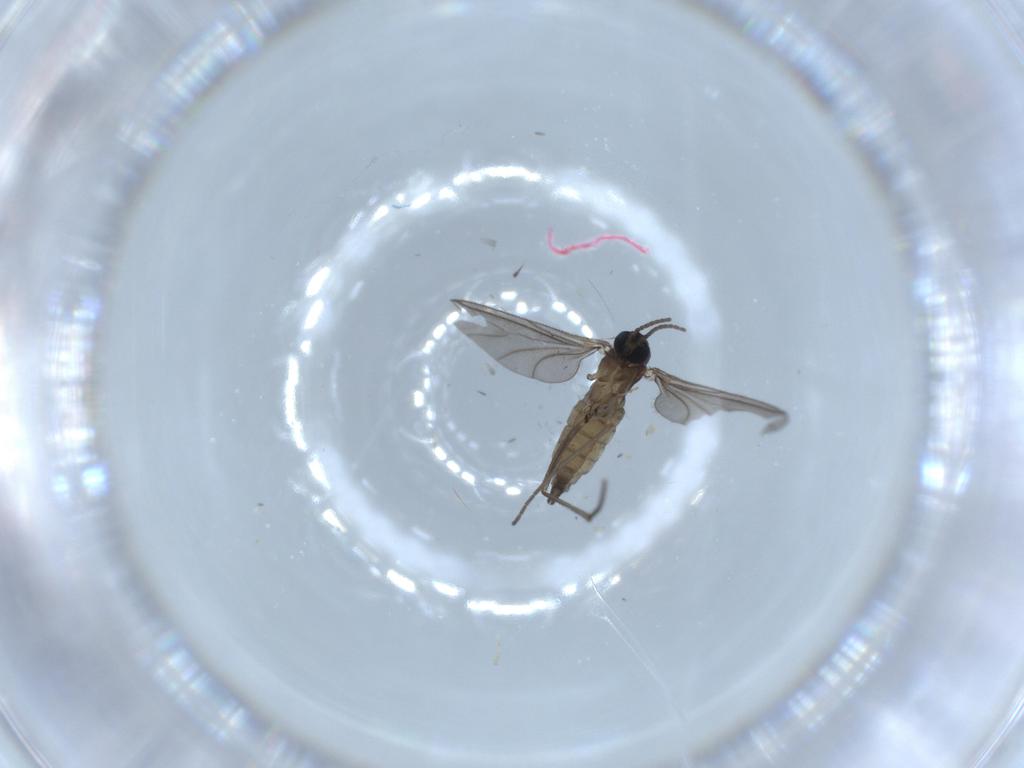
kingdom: Animalia
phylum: Arthropoda
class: Insecta
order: Diptera
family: Sciaridae
